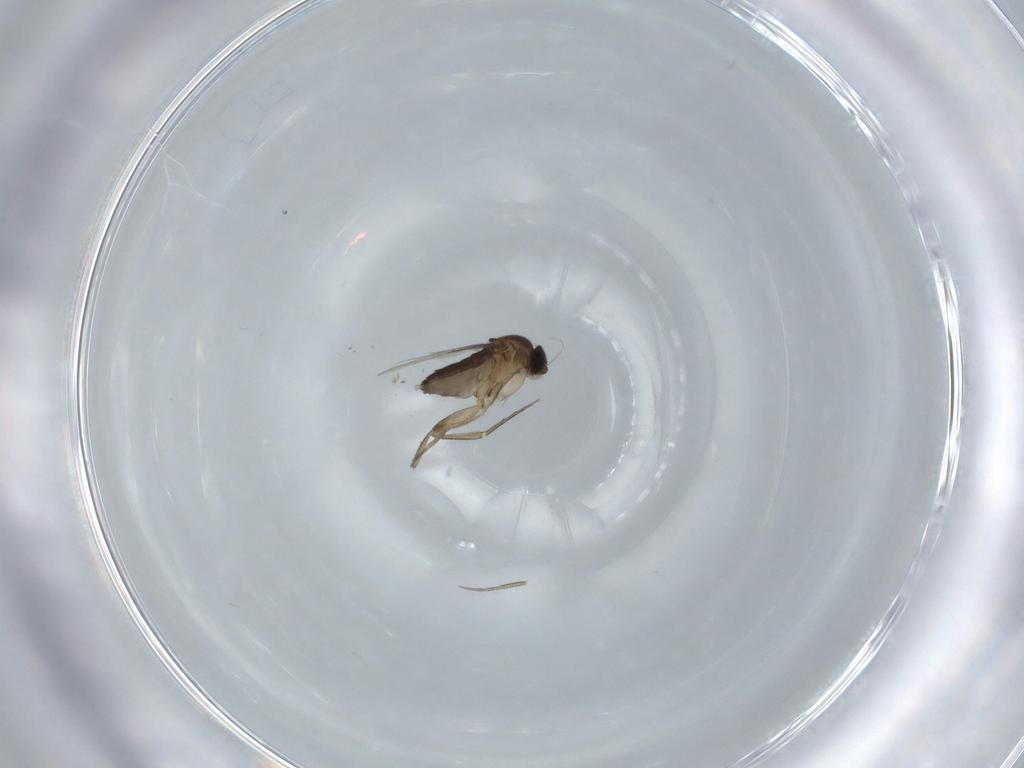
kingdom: Animalia
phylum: Arthropoda
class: Insecta
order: Diptera
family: Phoridae
